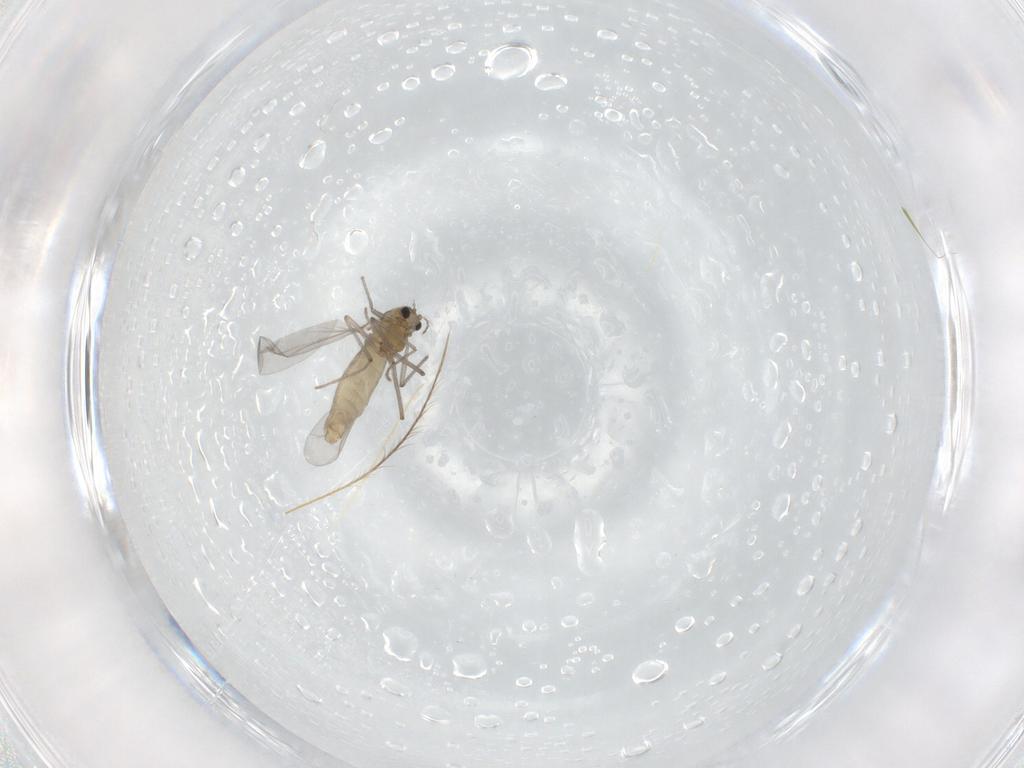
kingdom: Animalia
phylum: Arthropoda
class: Insecta
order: Diptera
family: Chironomidae
